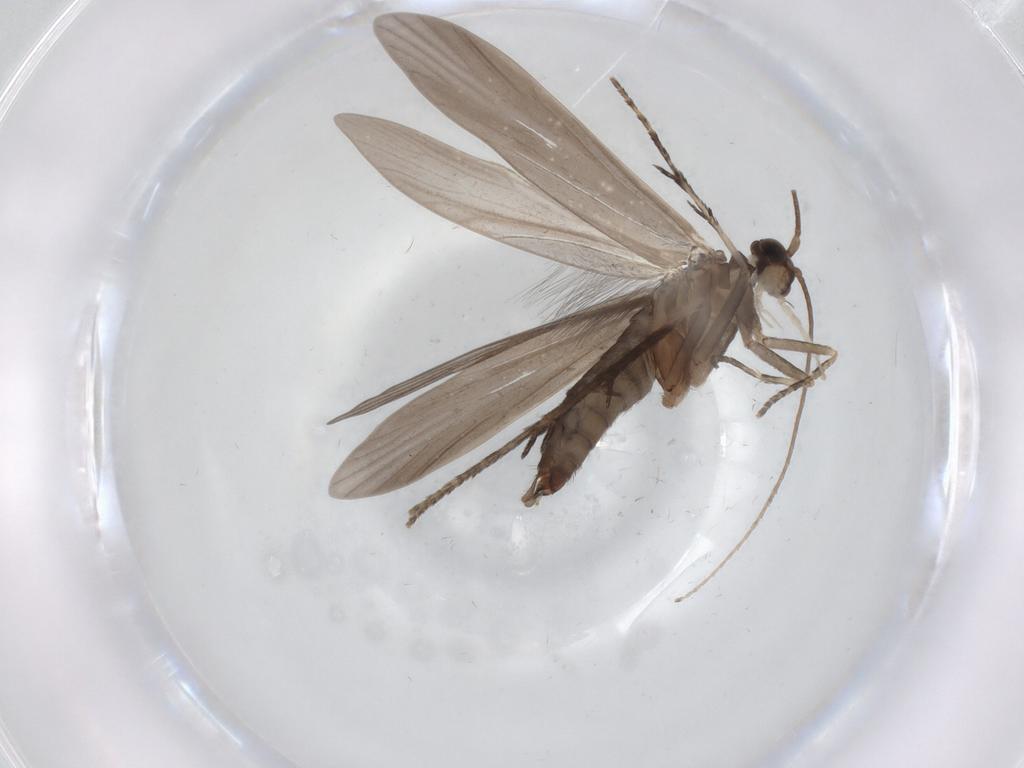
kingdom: Animalia
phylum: Arthropoda
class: Insecta
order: Trichoptera
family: Xiphocentronidae
